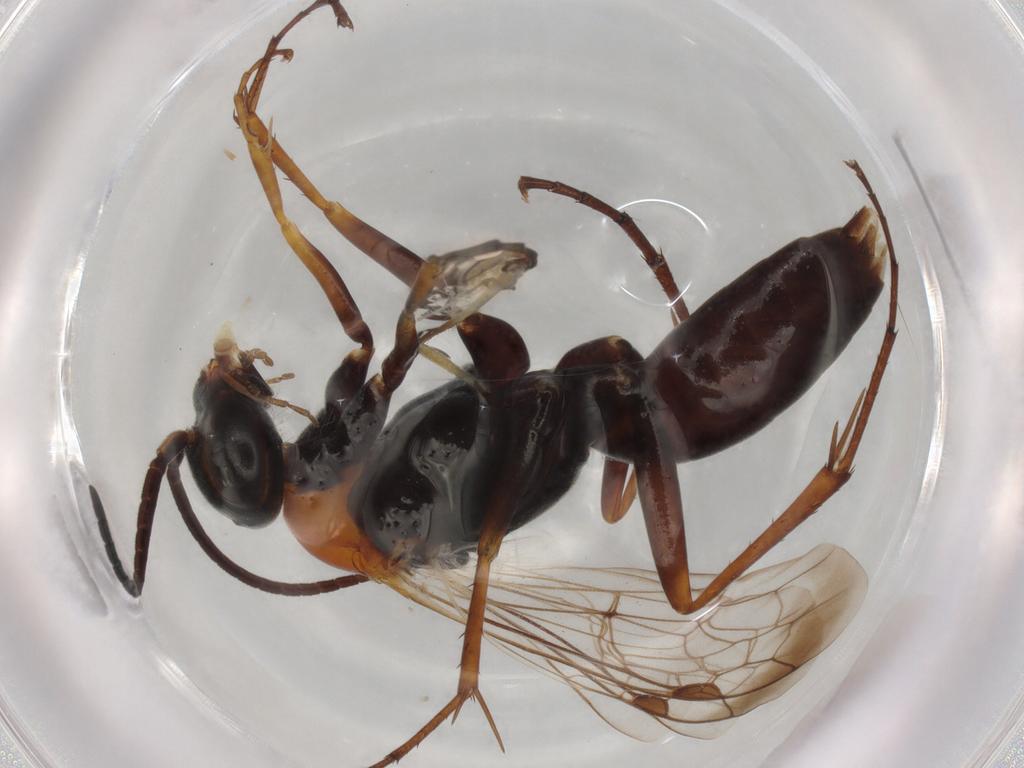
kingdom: Animalia
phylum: Arthropoda
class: Insecta
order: Hymenoptera
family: Pompilidae
